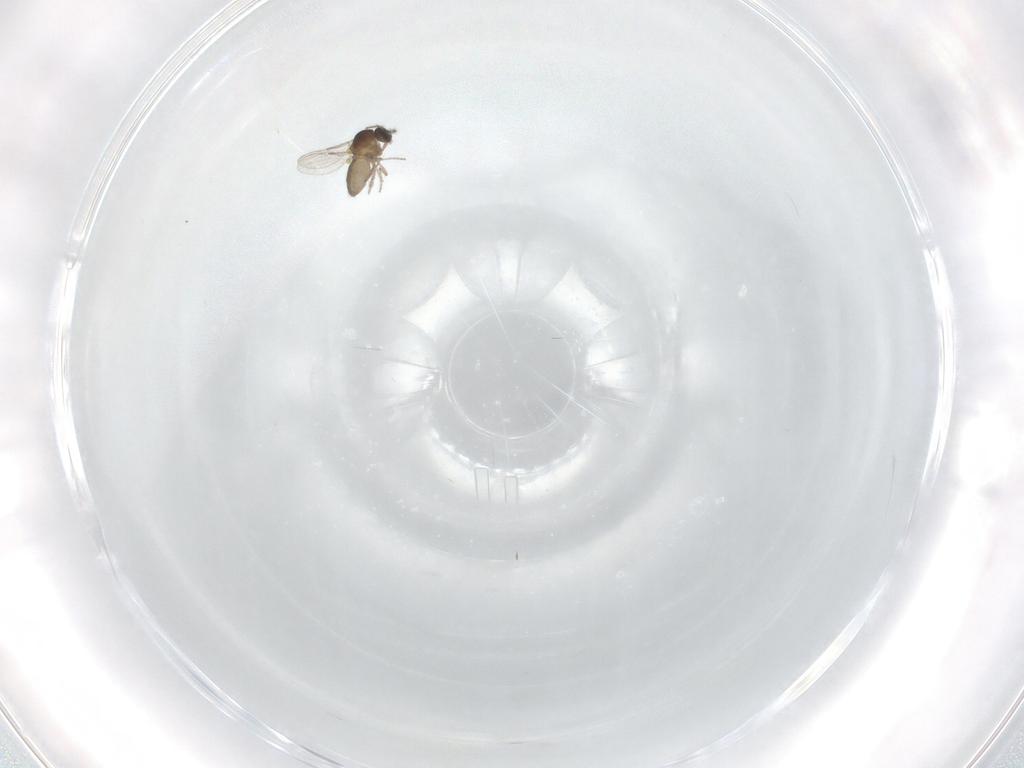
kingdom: Animalia
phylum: Arthropoda
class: Insecta
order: Diptera
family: Ceratopogonidae
